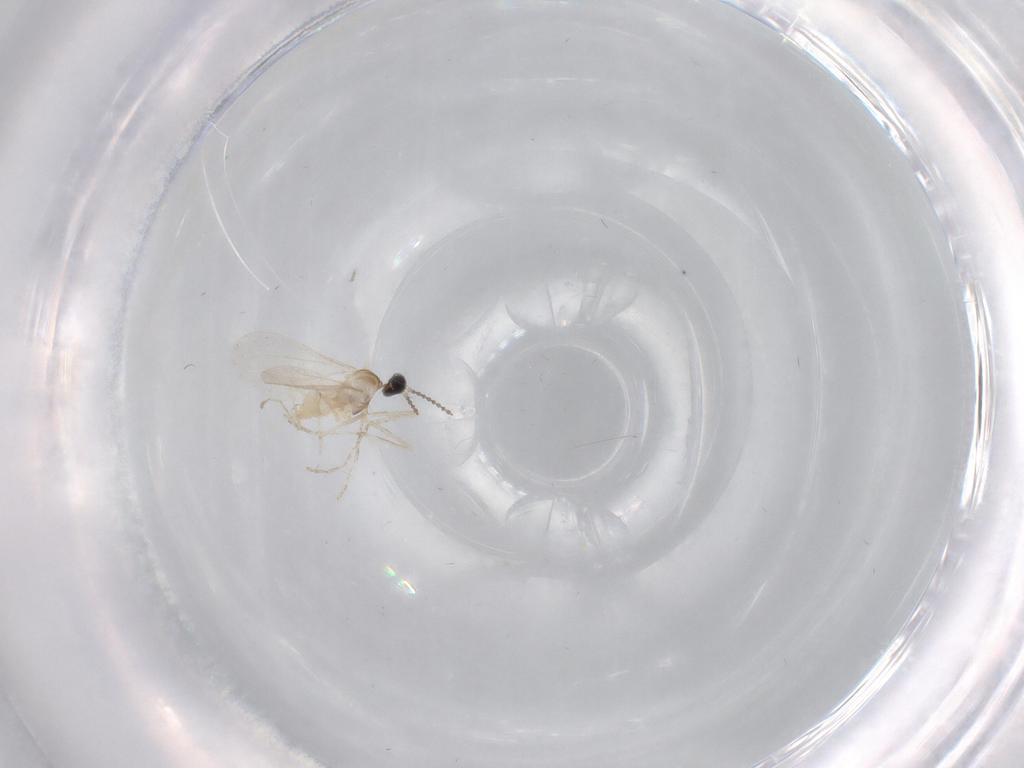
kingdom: Animalia
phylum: Arthropoda
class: Insecta
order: Diptera
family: Cecidomyiidae
